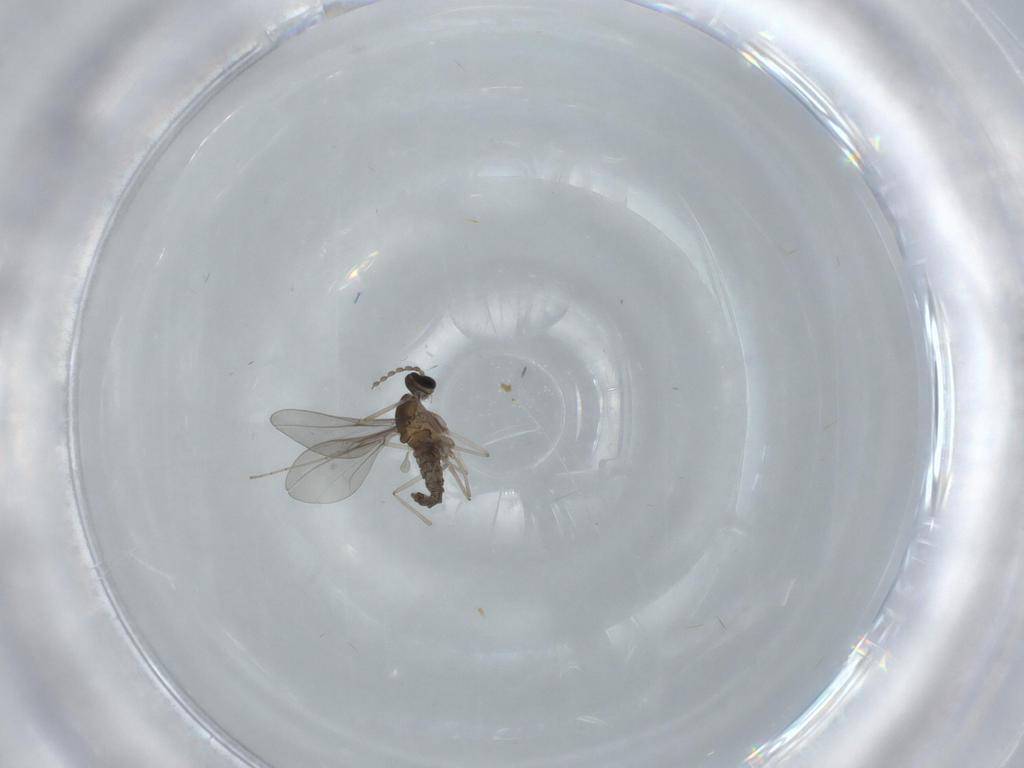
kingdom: Animalia
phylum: Arthropoda
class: Insecta
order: Diptera
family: Cecidomyiidae
